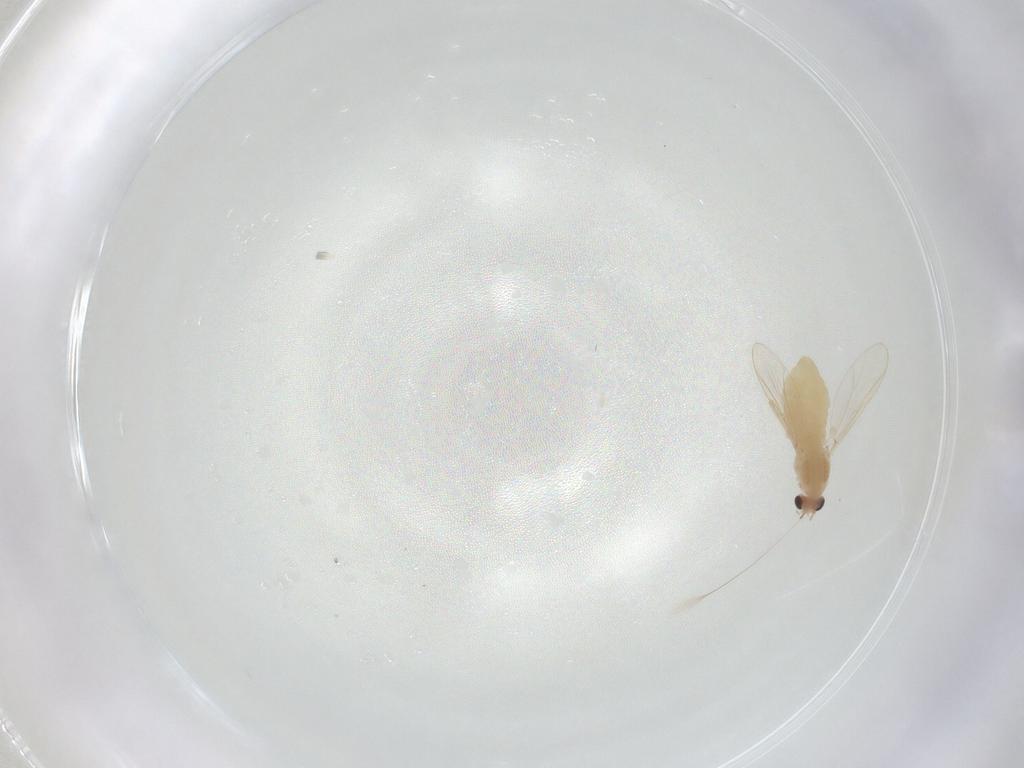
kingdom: Animalia
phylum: Arthropoda
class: Insecta
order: Diptera
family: Chironomidae
